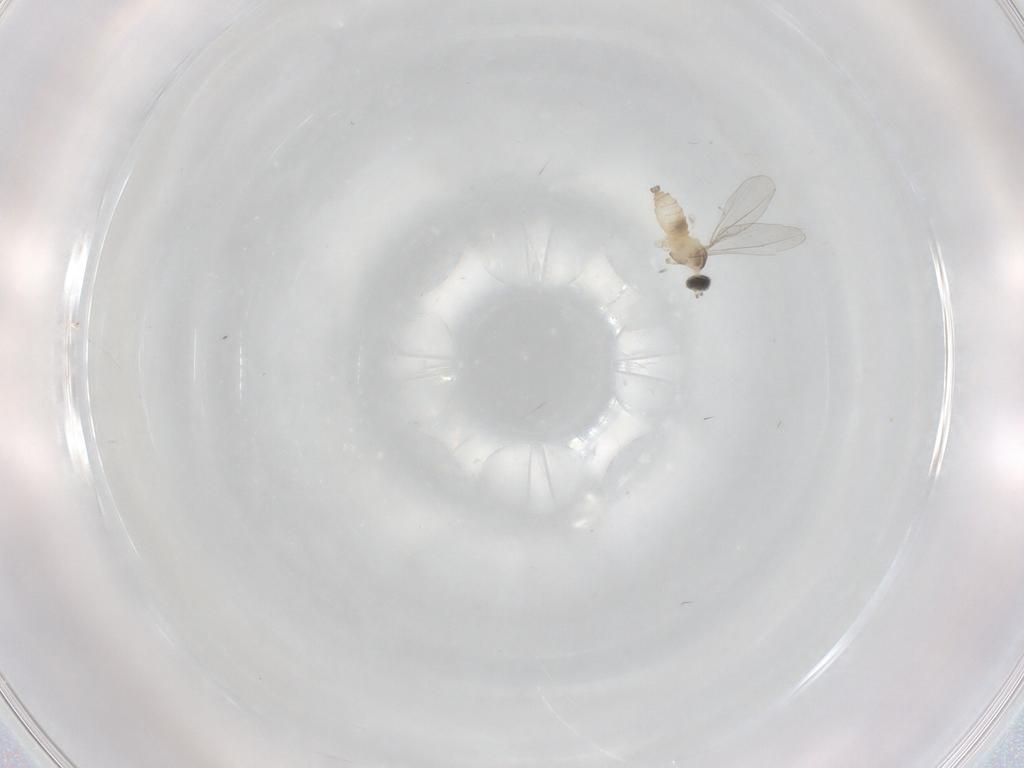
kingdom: Animalia
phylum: Arthropoda
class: Insecta
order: Diptera
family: Cecidomyiidae
